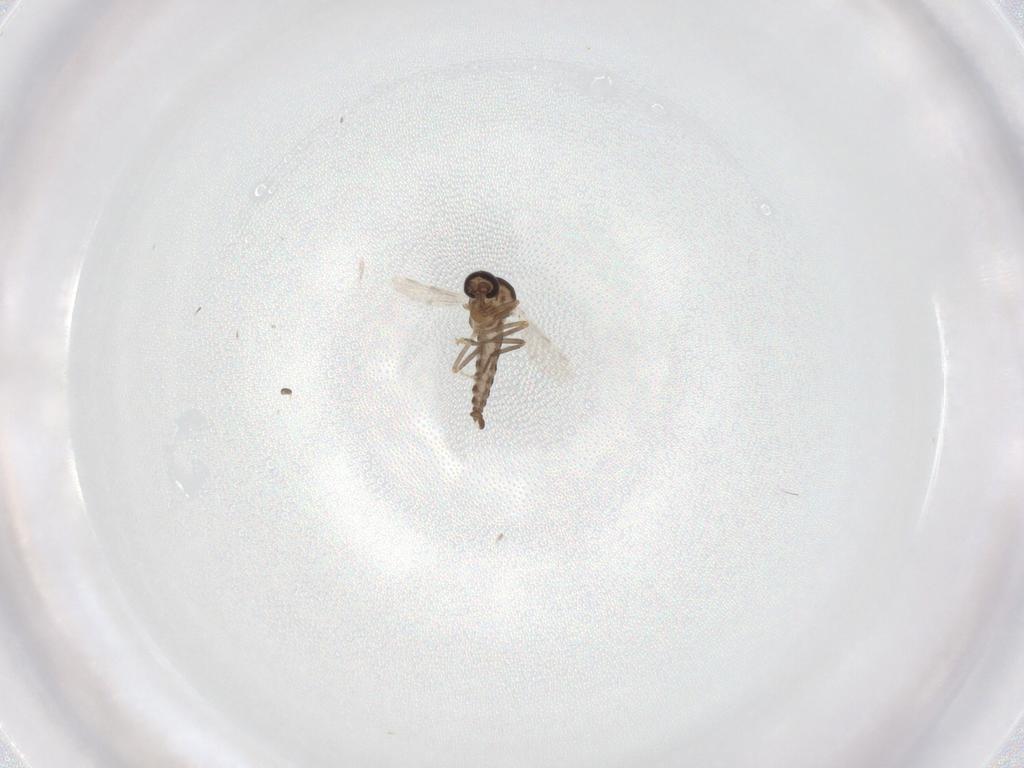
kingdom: Animalia
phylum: Arthropoda
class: Insecta
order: Diptera
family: Ceratopogonidae
